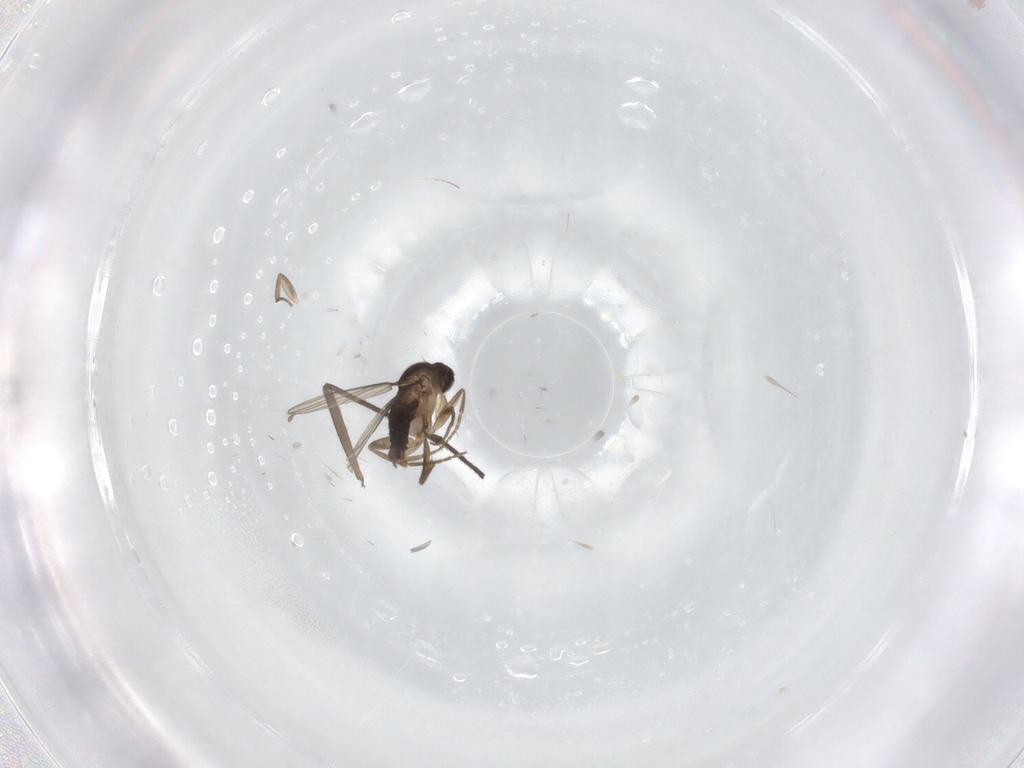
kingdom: Animalia
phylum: Arthropoda
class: Insecta
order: Diptera
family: Phoridae
